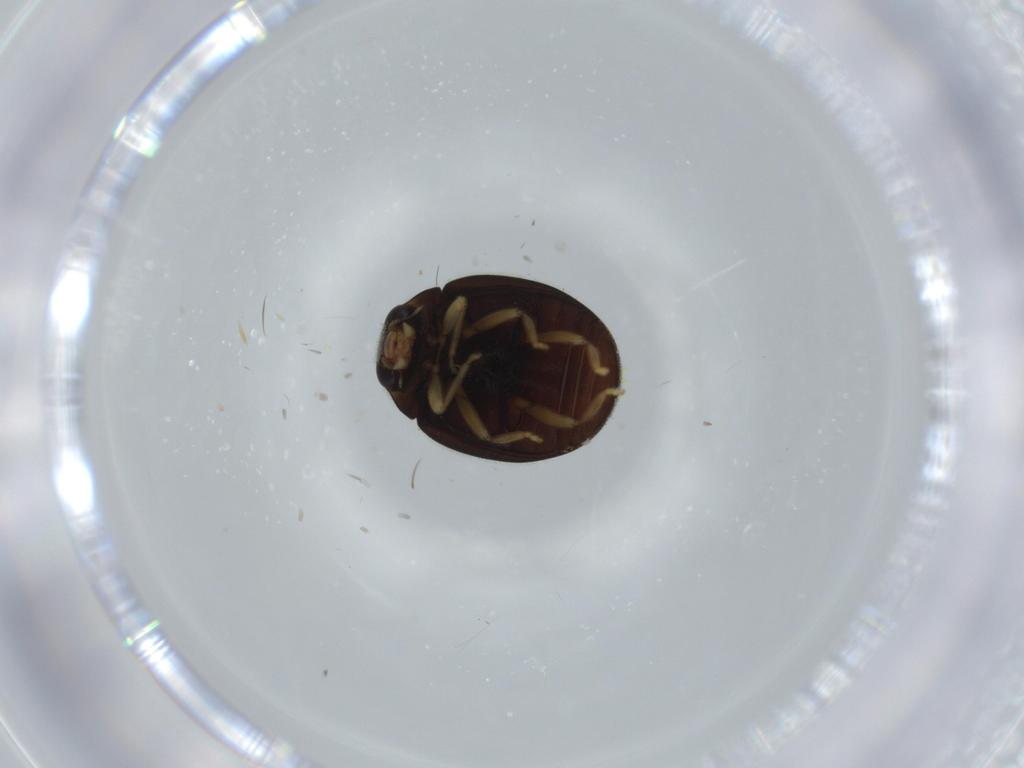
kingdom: Animalia
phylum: Arthropoda
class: Insecta
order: Coleoptera
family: Coccinellidae
